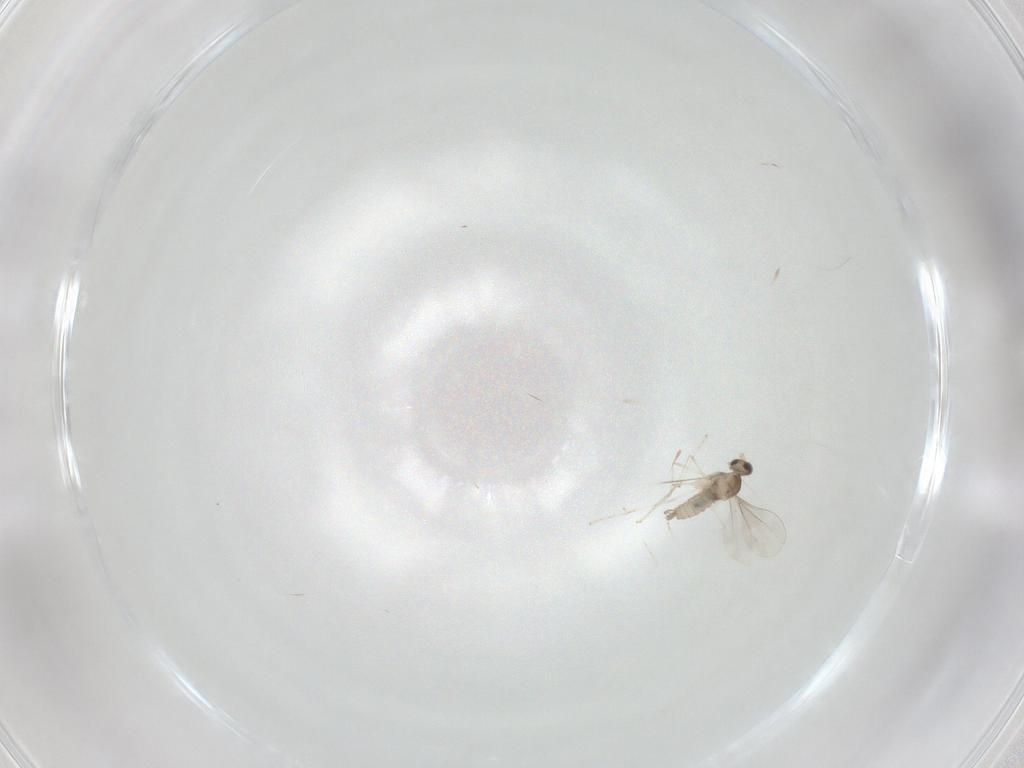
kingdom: Animalia
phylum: Arthropoda
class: Insecta
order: Diptera
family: Cecidomyiidae
